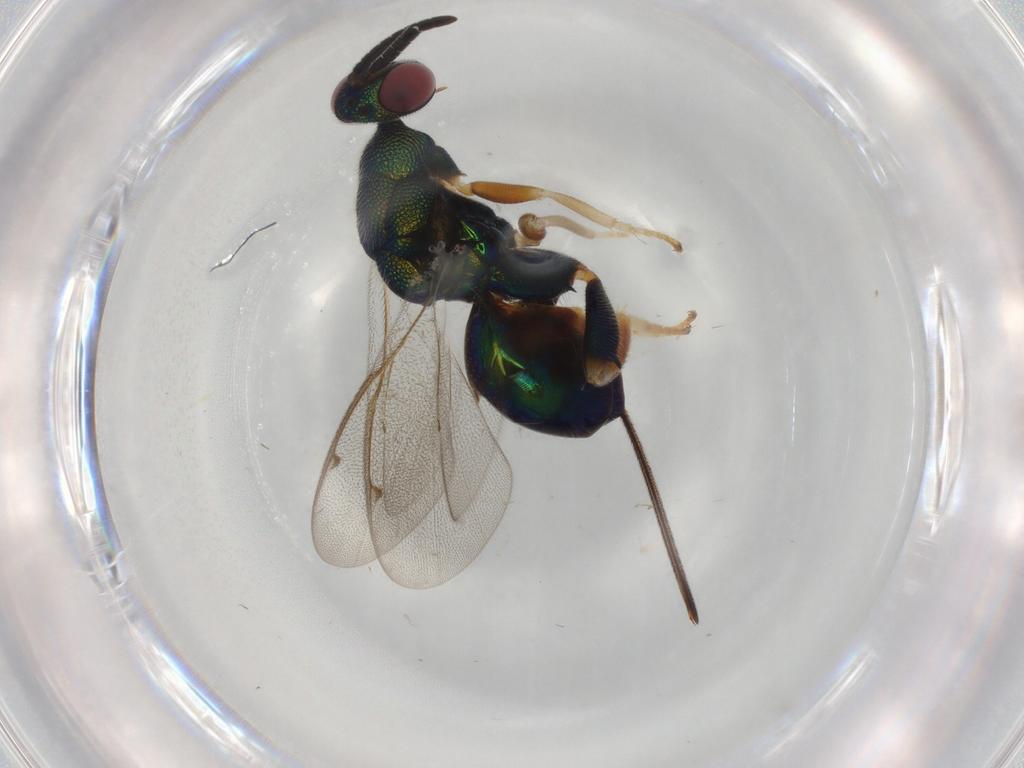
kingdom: Animalia
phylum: Arthropoda
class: Insecta
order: Hymenoptera
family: Torymidae
